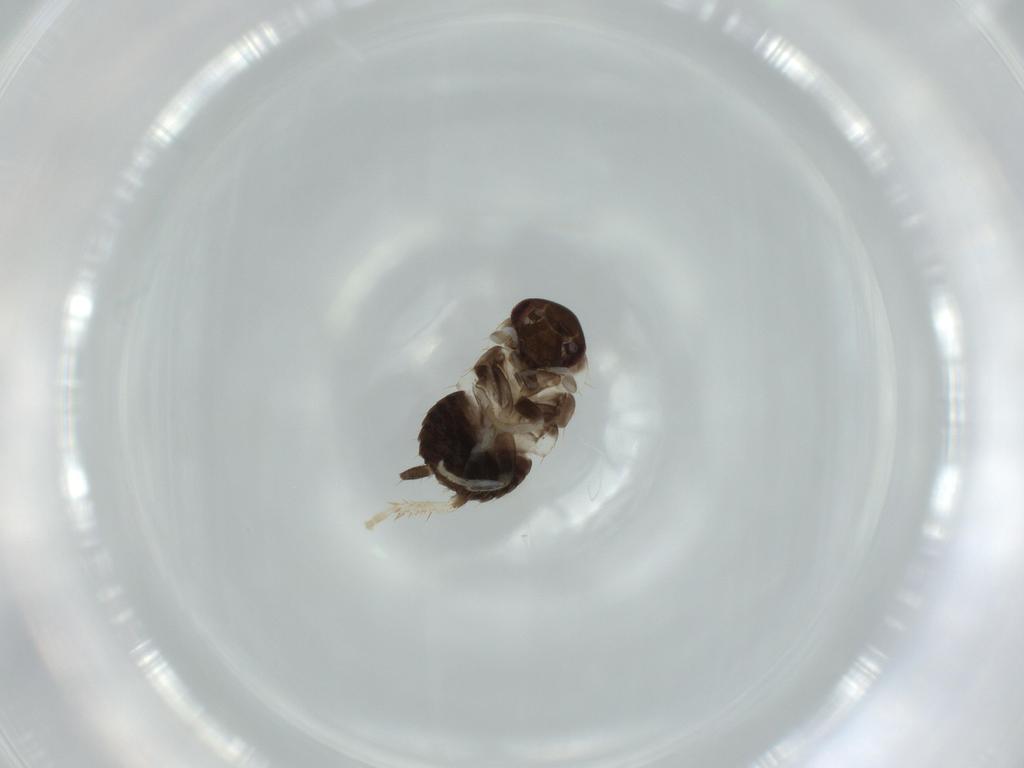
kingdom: Animalia
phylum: Arthropoda
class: Insecta
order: Blattodea
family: Ectobiidae
